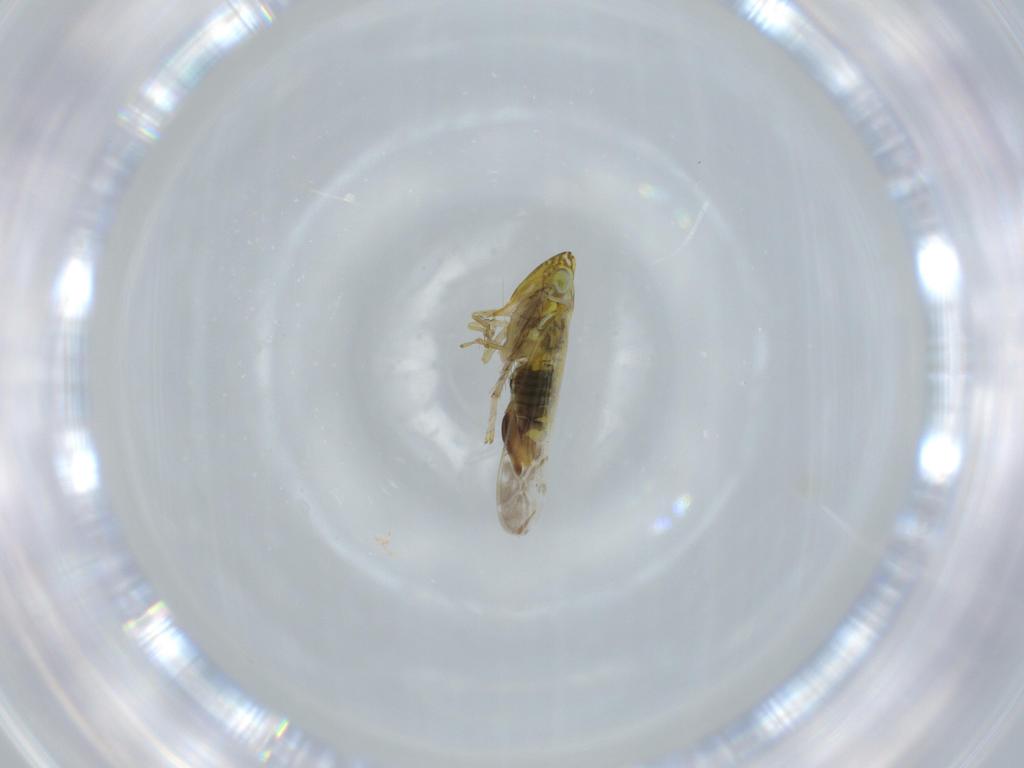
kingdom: Animalia
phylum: Arthropoda
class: Insecta
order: Hemiptera
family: Cicadellidae
